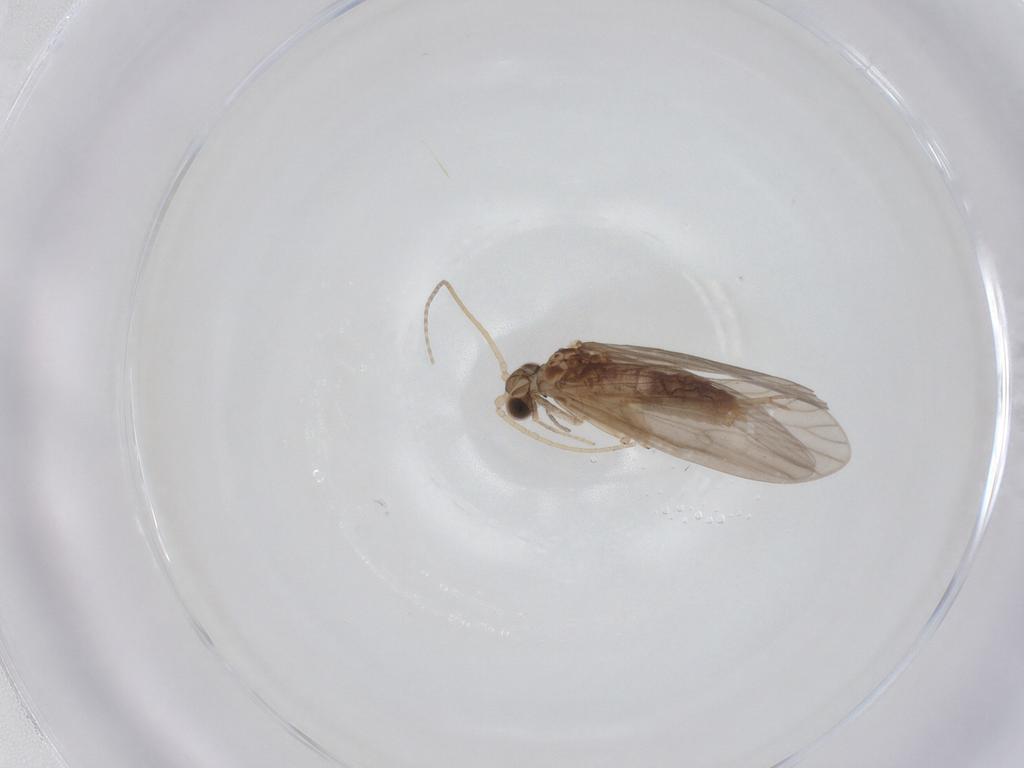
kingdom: Animalia
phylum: Arthropoda
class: Insecta
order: Trichoptera
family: Psychomyiidae
